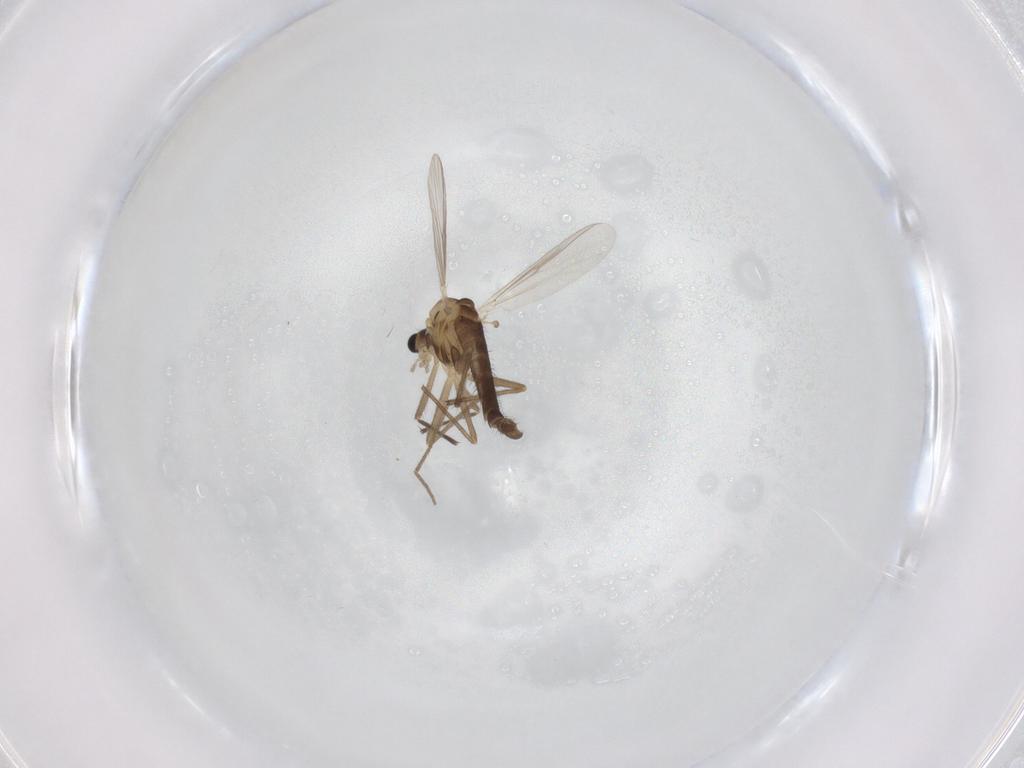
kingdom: Animalia
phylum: Arthropoda
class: Insecta
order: Diptera
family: Chironomidae
